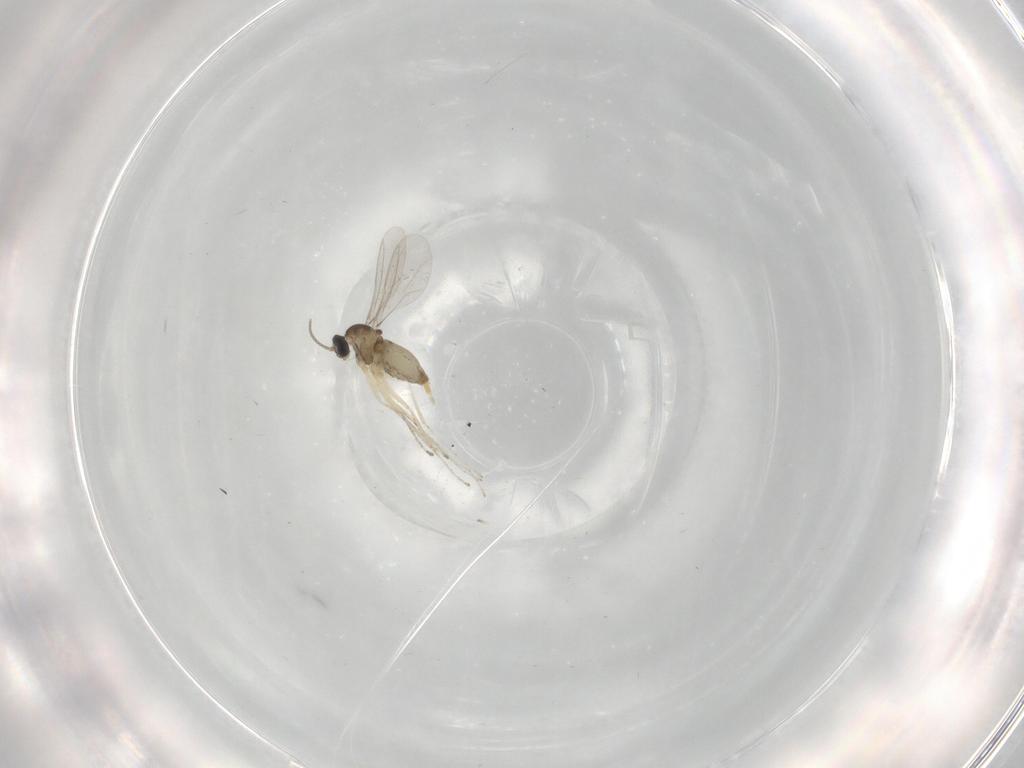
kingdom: Animalia
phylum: Arthropoda
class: Insecta
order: Diptera
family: Cecidomyiidae
